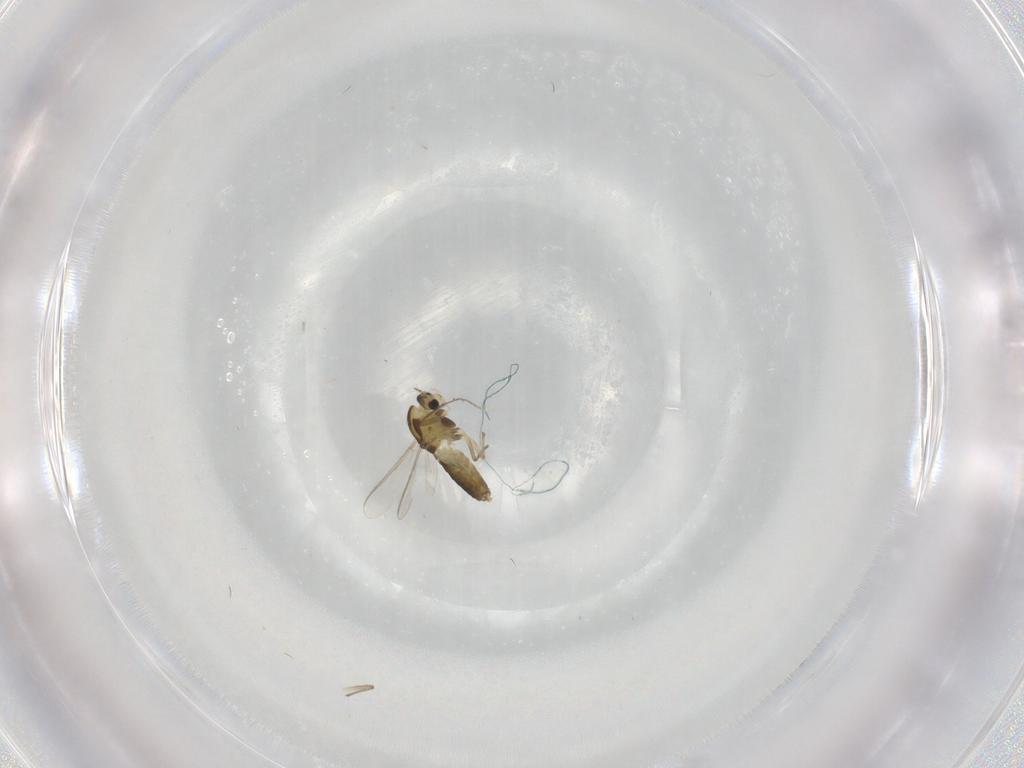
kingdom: Animalia
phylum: Arthropoda
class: Insecta
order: Diptera
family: Chironomidae
